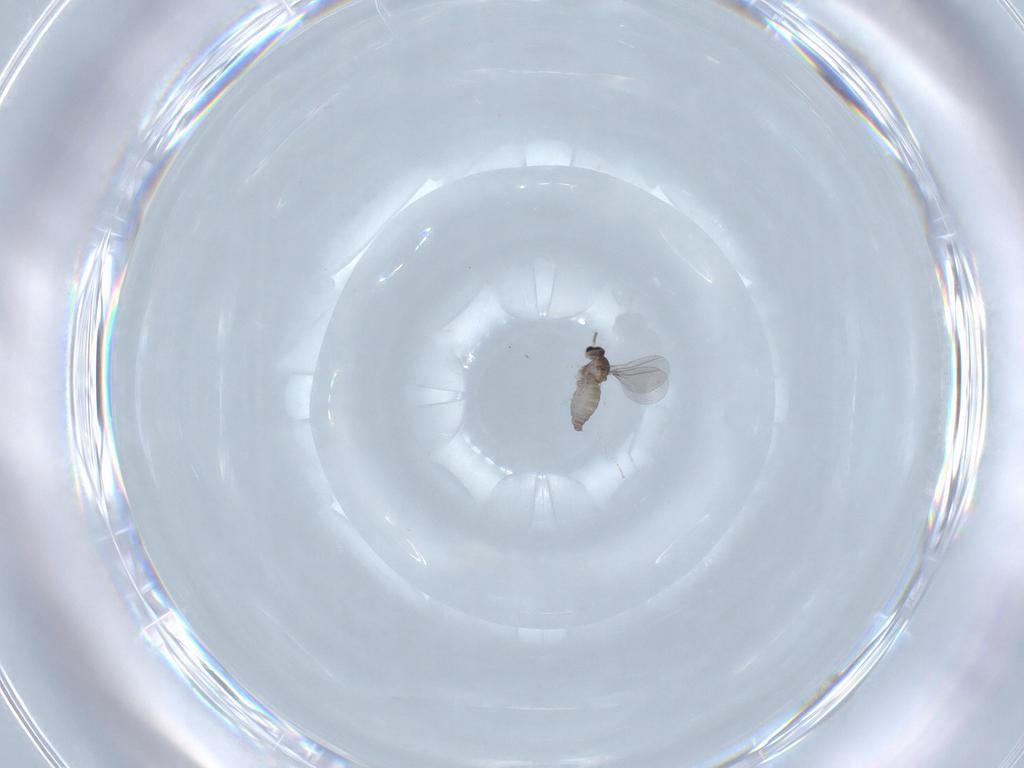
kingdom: Animalia
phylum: Arthropoda
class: Insecta
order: Diptera
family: Cecidomyiidae
